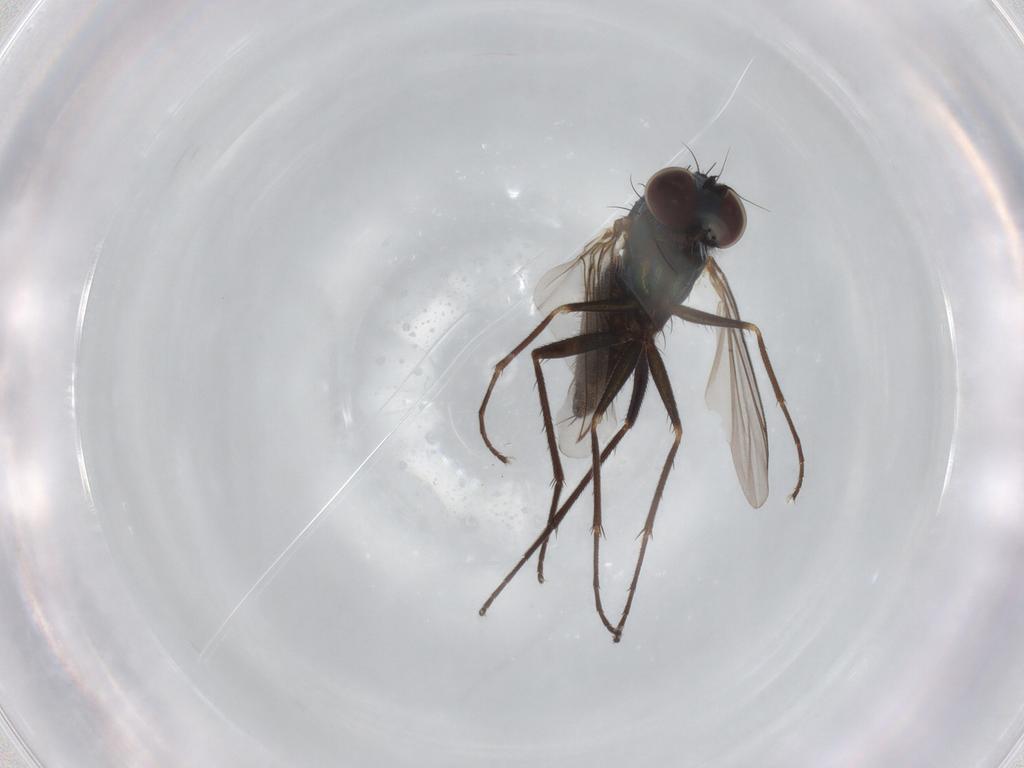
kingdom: Animalia
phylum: Arthropoda
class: Insecta
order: Diptera
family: Dolichopodidae
